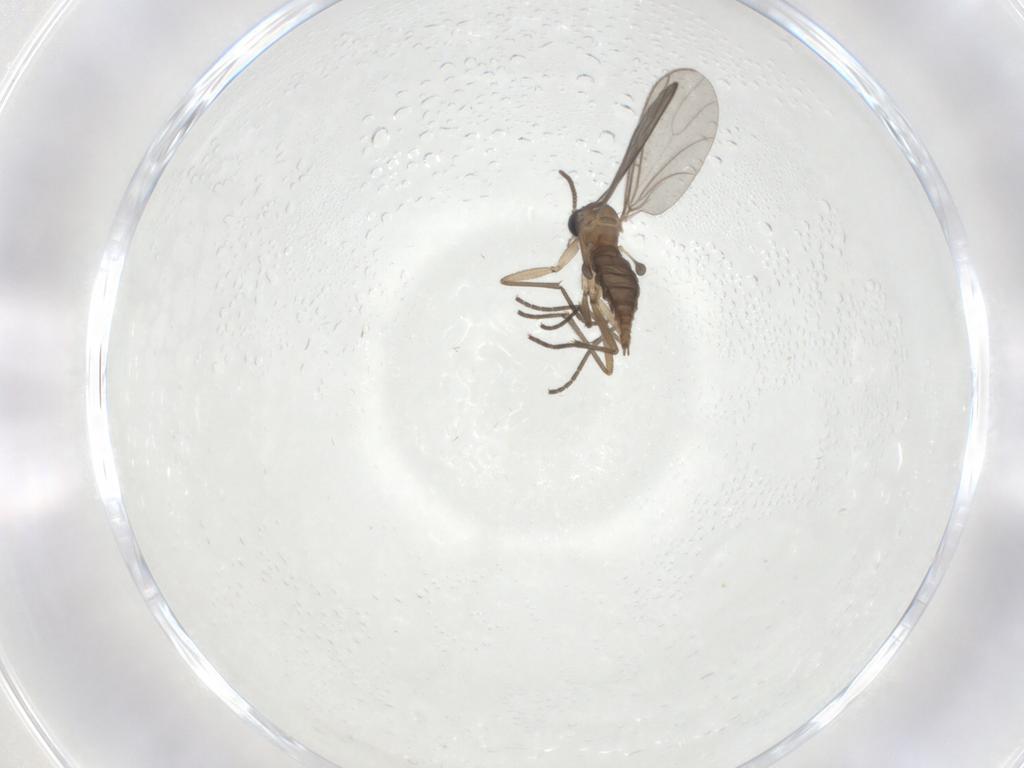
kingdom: Animalia
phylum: Arthropoda
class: Insecta
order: Diptera
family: Sciaridae
